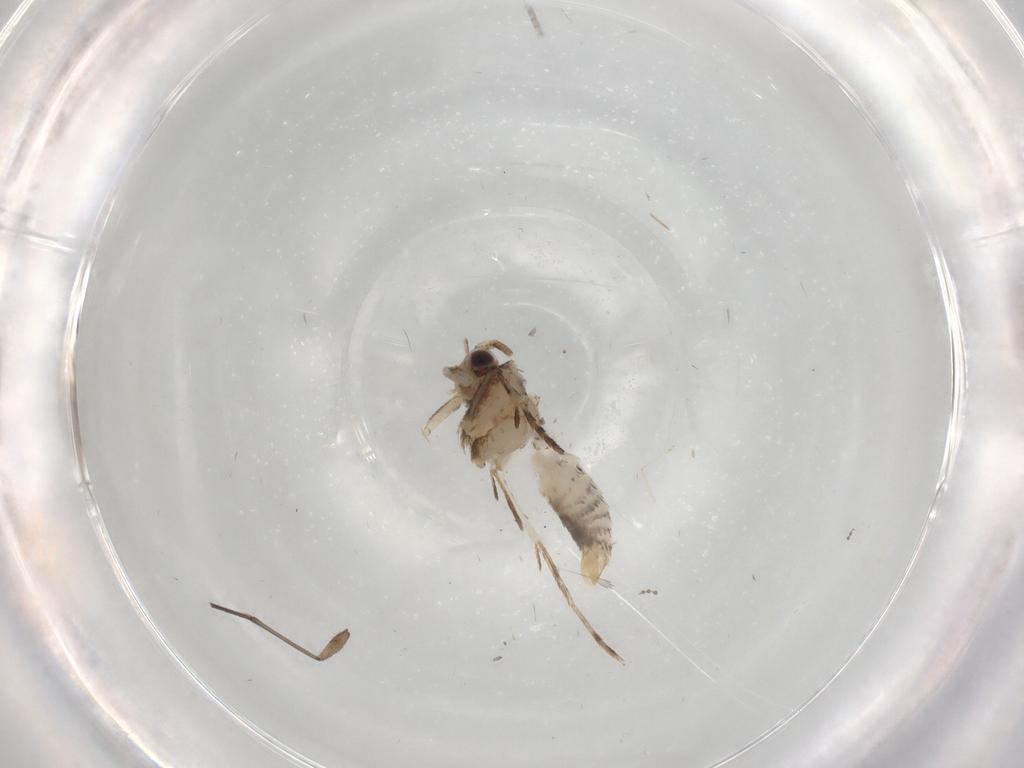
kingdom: Animalia
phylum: Arthropoda
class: Insecta
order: Lepidoptera
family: Tineidae
